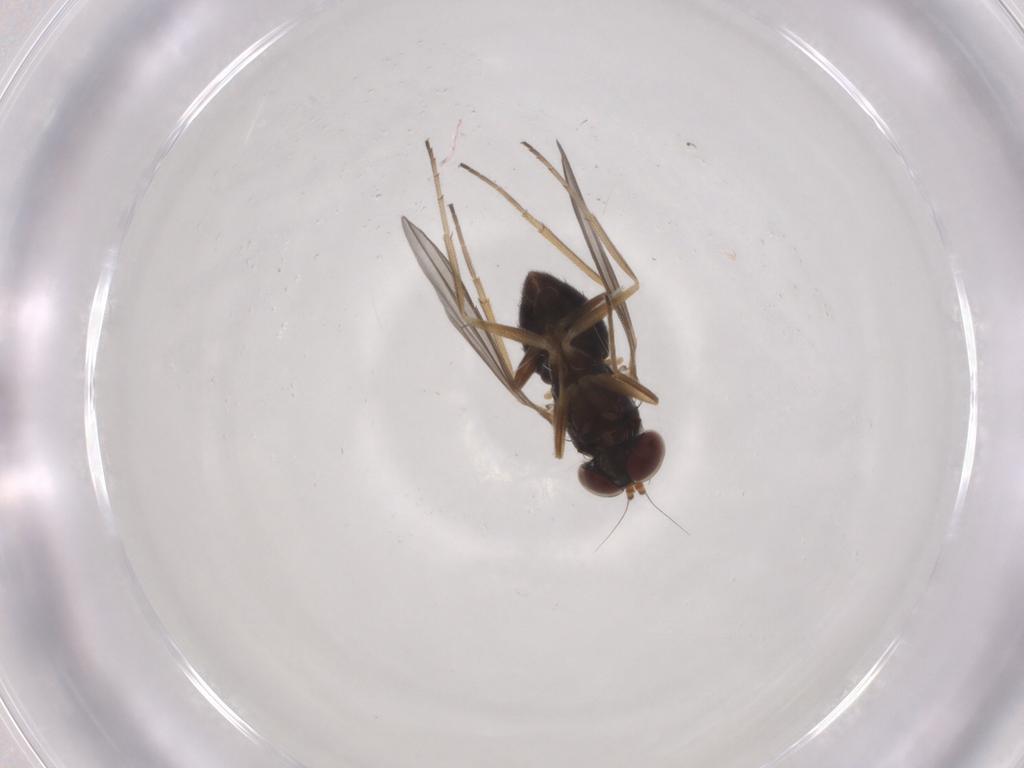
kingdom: Animalia
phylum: Arthropoda
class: Insecta
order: Diptera
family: Dolichopodidae
